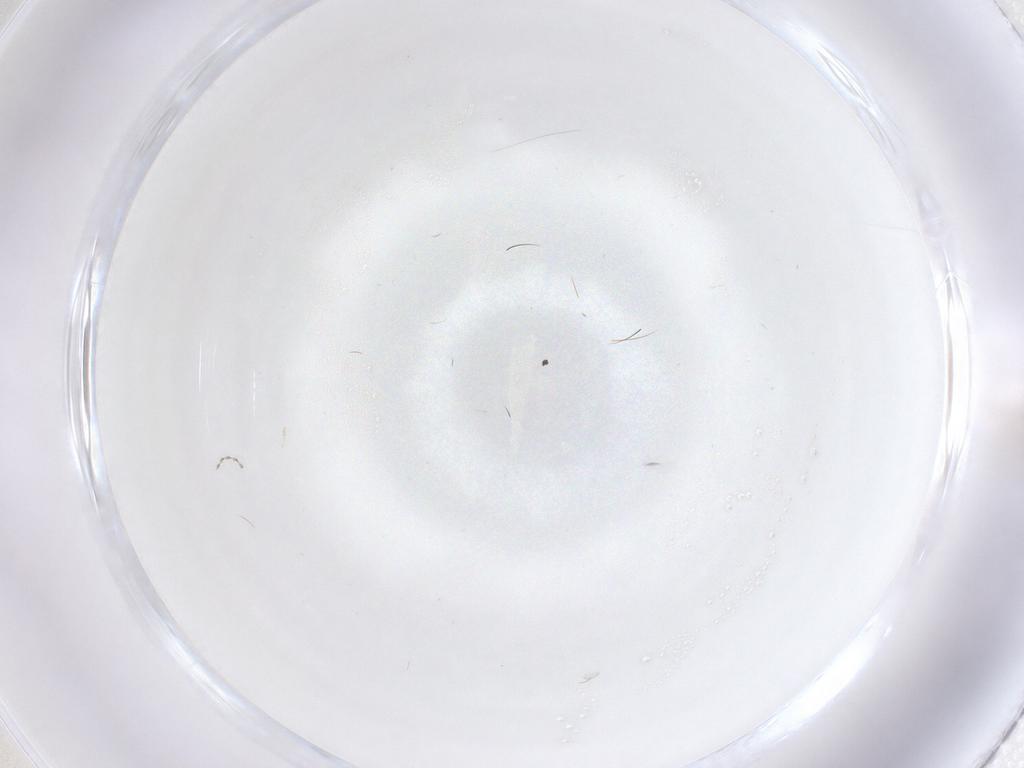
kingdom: Animalia
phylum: Arthropoda
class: Insecta
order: Diptera
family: Cecidomyiidae
